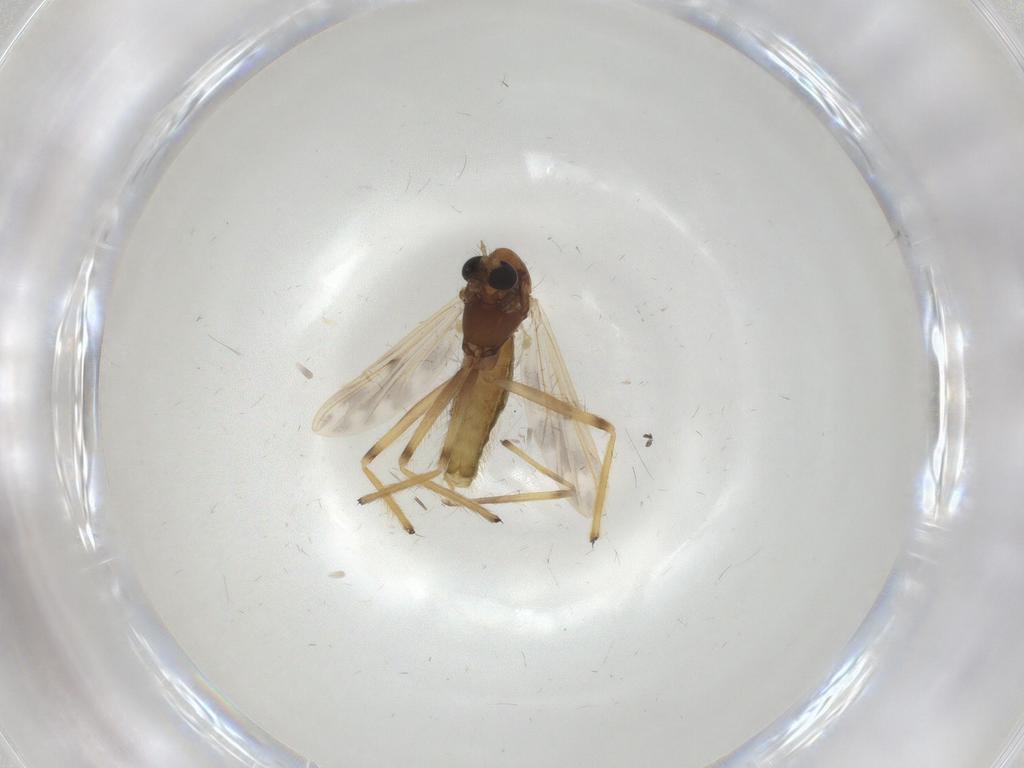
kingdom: Animalia
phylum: Arthropoda
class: Insecta
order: Diptera
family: Chironomidae
